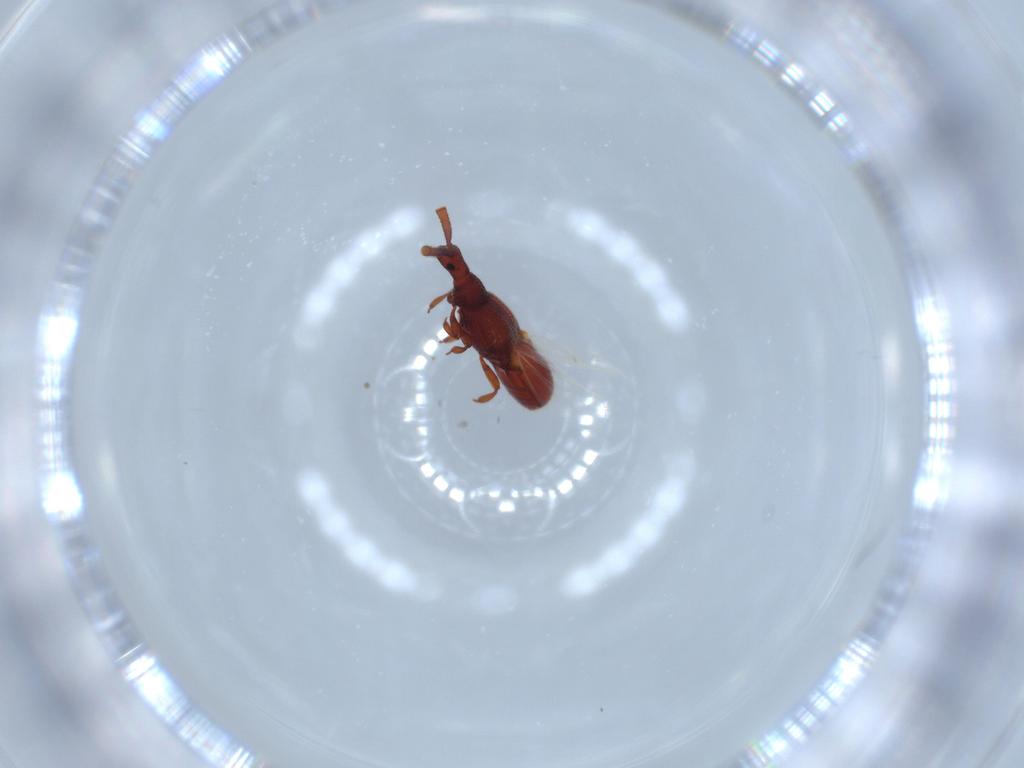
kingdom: Animalia
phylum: Arthropoda
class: Insecta
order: Coleoptera
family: Staphylinidae
